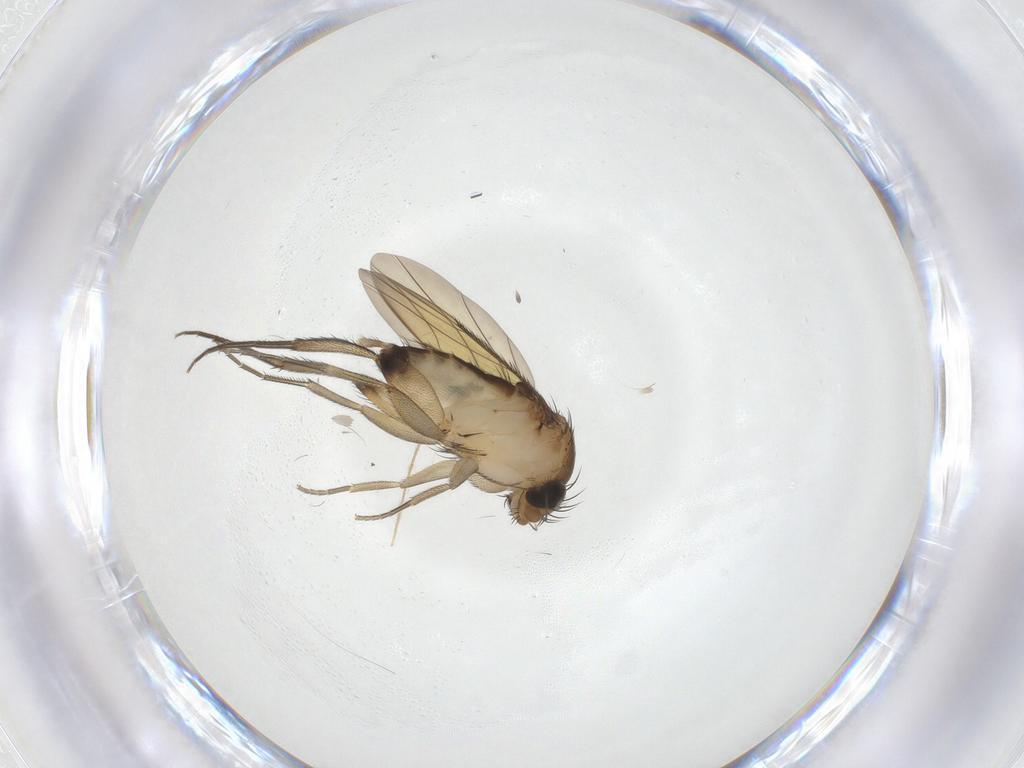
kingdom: Animalia
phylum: Arthropoda
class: Insecta
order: Diptera
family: Phoridae
